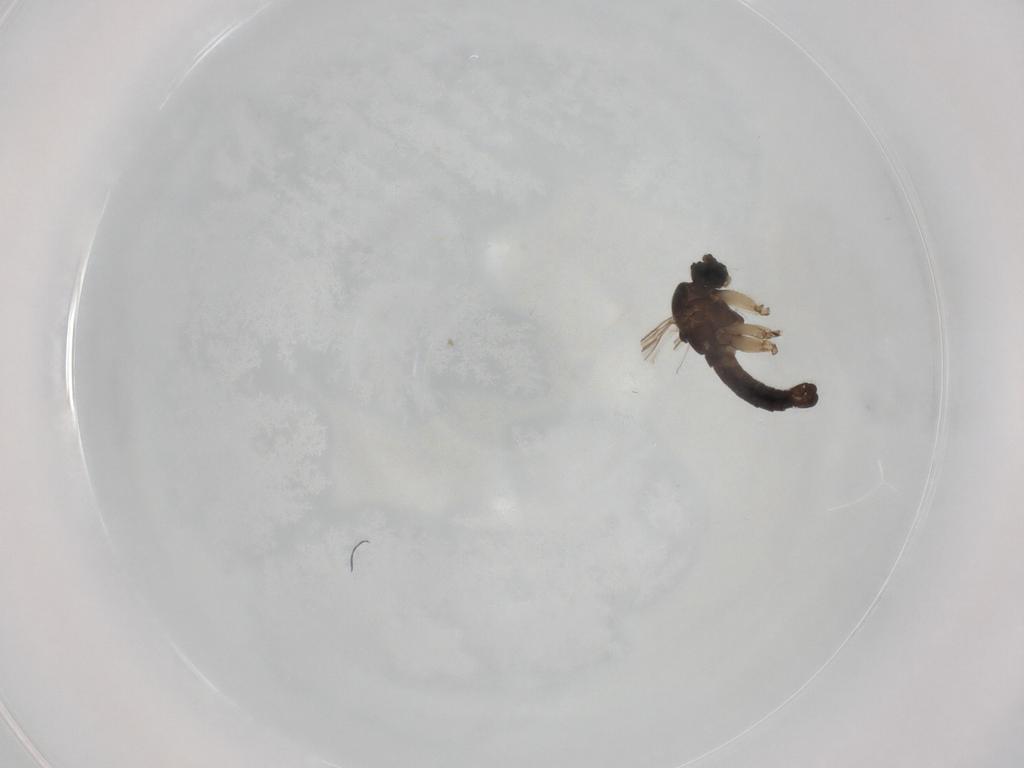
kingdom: Animalia
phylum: Arthropoda
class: Insecta
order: Diptera
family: Sciaridae
